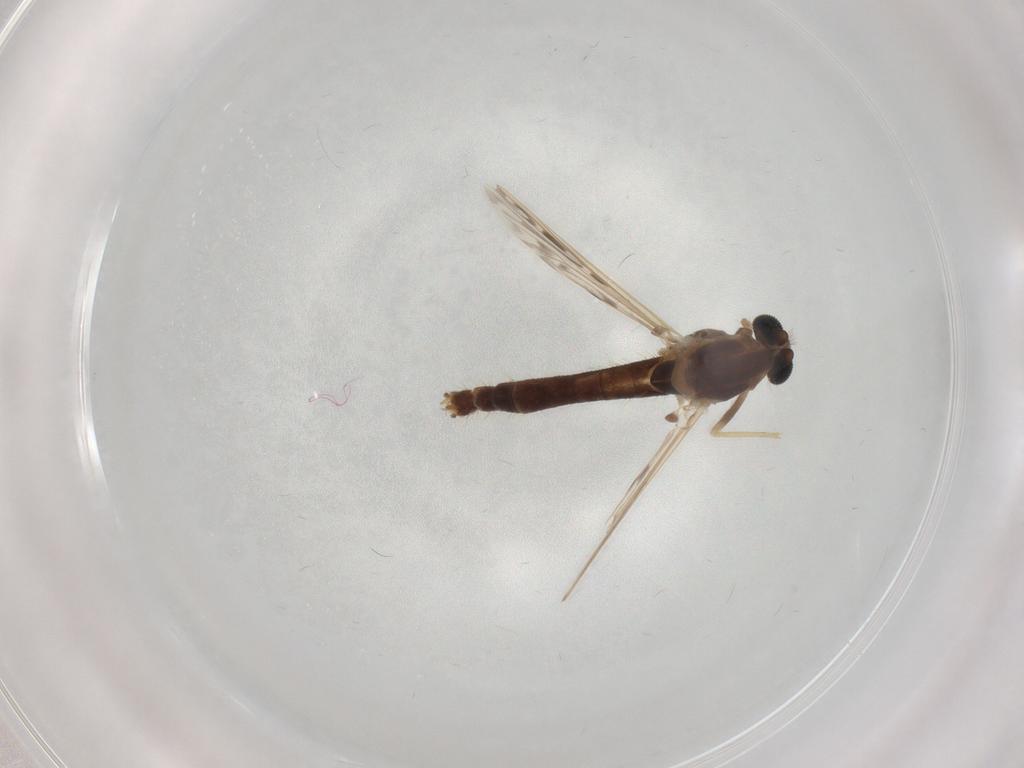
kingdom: Animalia
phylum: Arthropoda
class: Insecta
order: Diptera
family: Chironomidae
